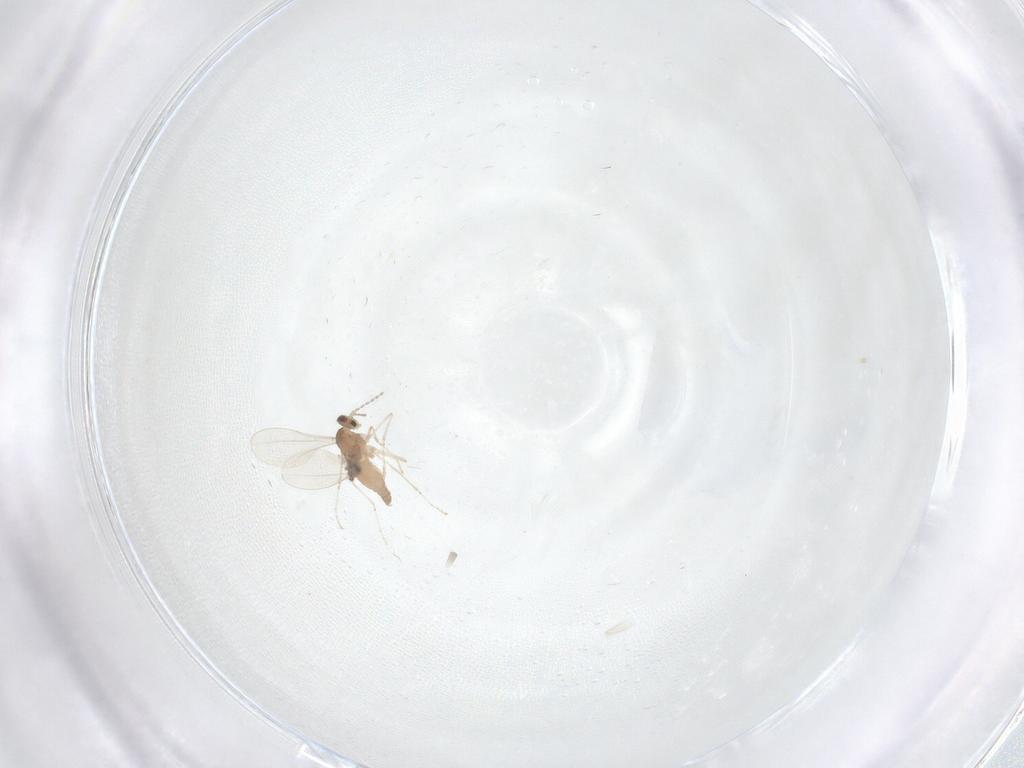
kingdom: Animalia
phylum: Arthropoda
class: Insecta
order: Diptera
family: Cecidomyiidae
